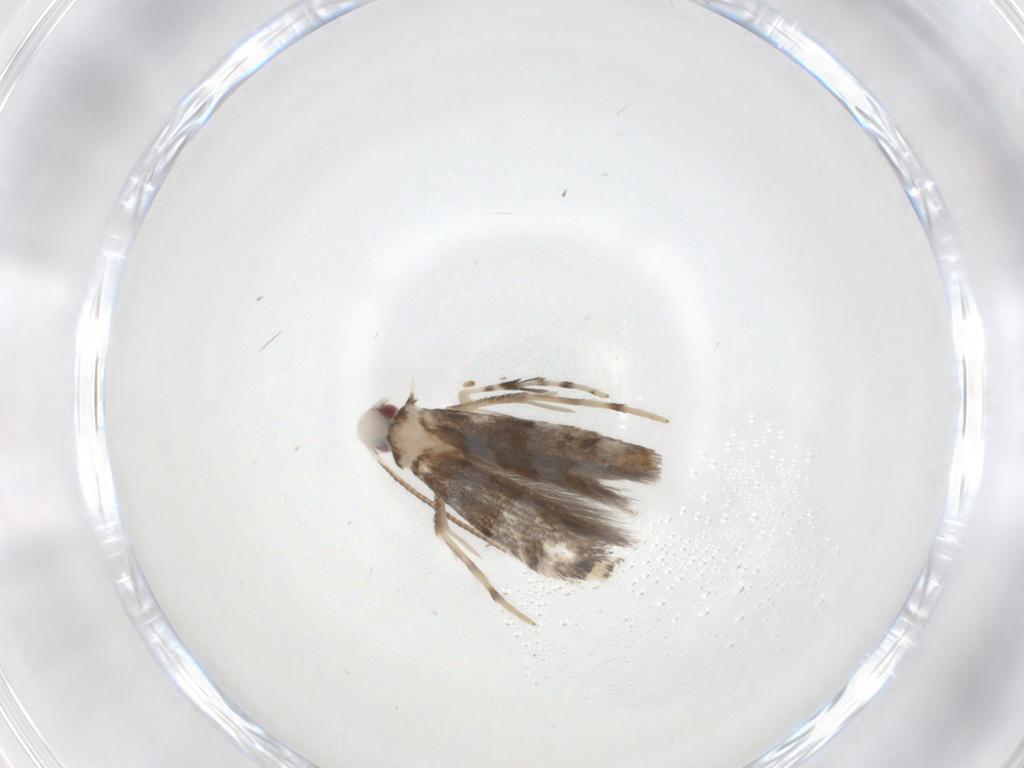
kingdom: Animalia
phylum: Arthropoda
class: Insecta
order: Lepidoptera
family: Gracillariidae
